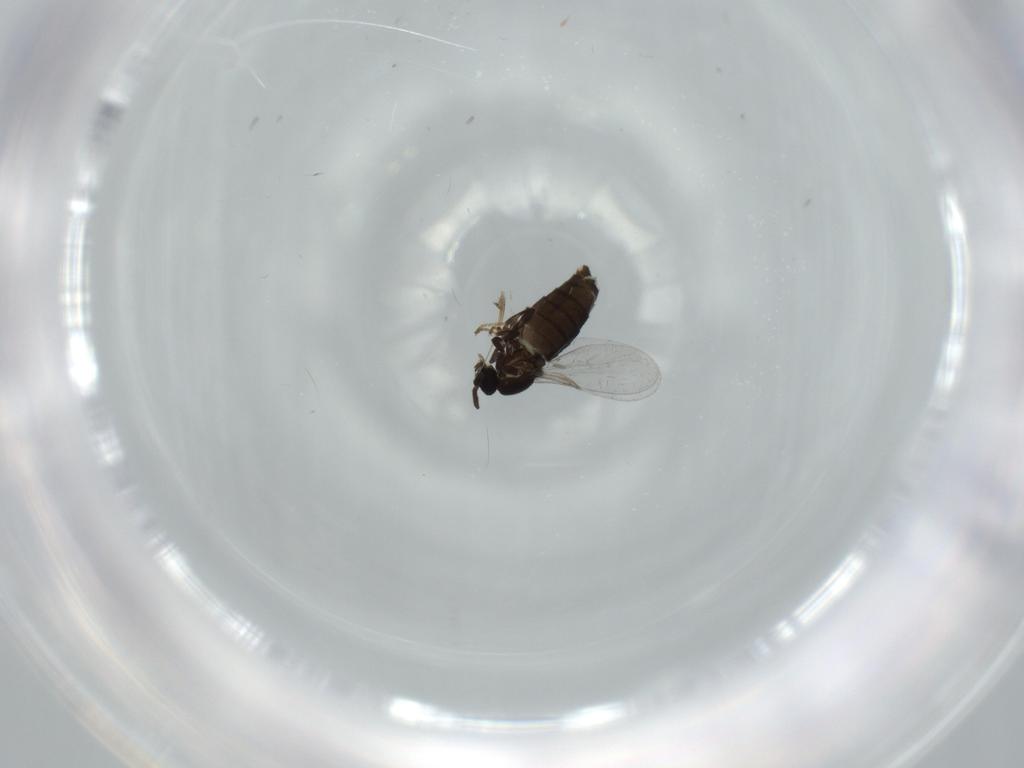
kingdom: Animalia
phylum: Arthropoda
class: Insecta
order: Diptera
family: Scatopsidae
